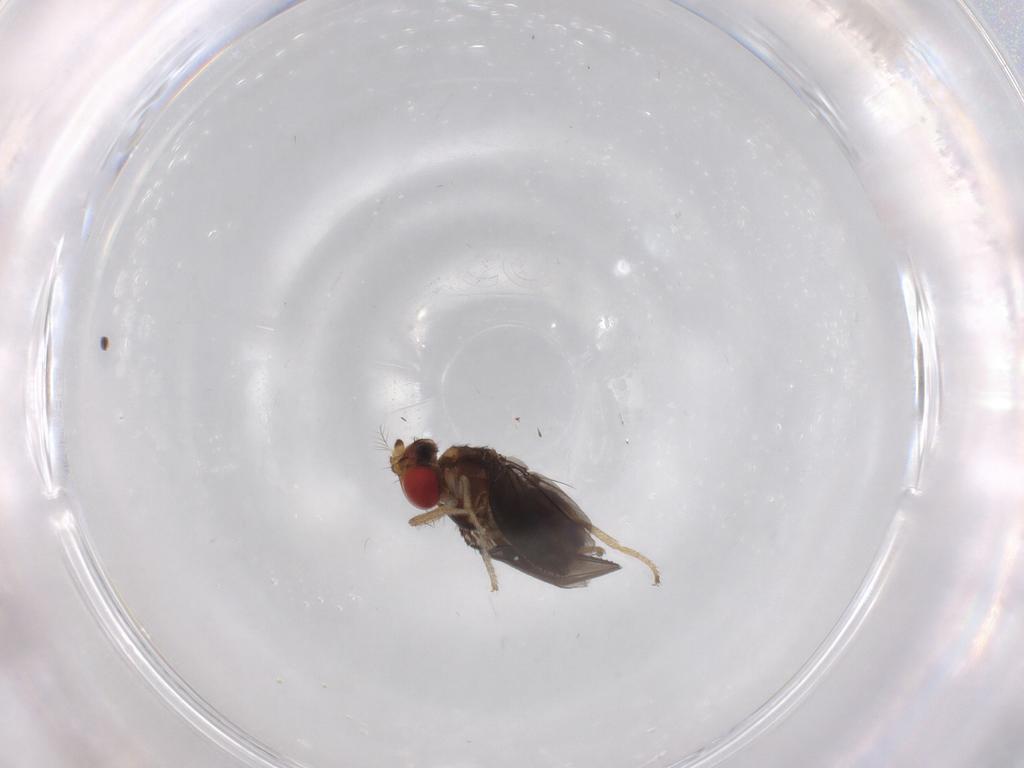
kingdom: Animalia
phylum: Arthropoda
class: Insecta
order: Diptera
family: Drosophilidae
